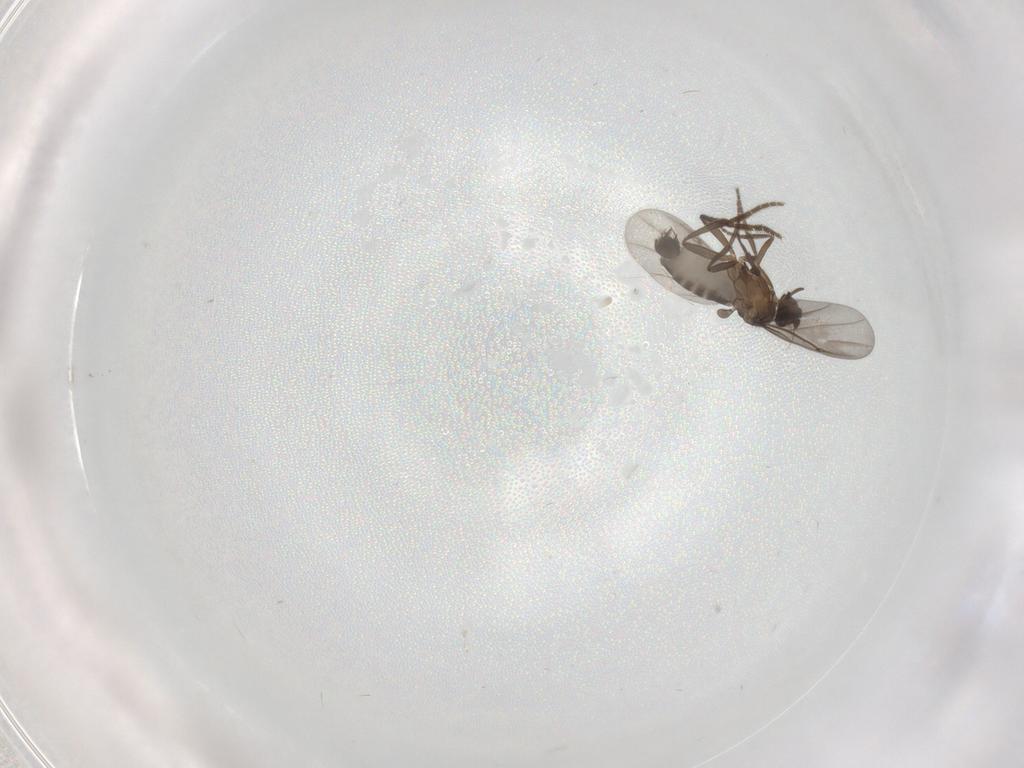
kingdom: Animalia
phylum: Arthropoda
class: Insecta
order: Diptera
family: Phoridae
